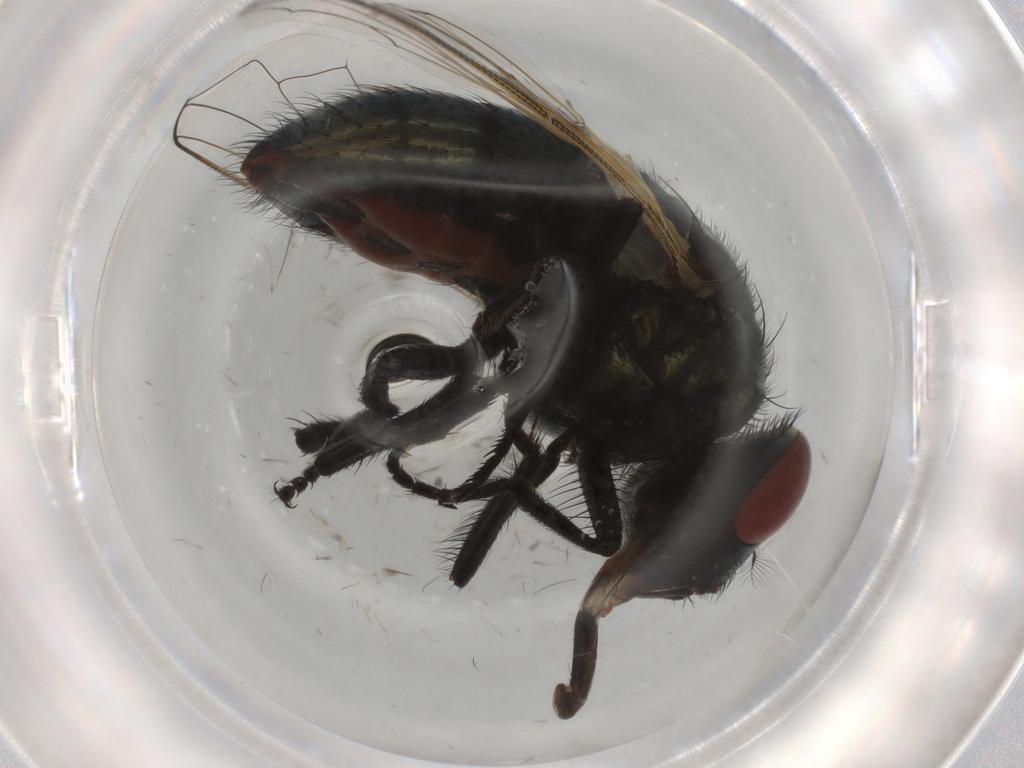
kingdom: Animalia
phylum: Arthropoda
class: Insecta
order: Diptera
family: Muscidae
